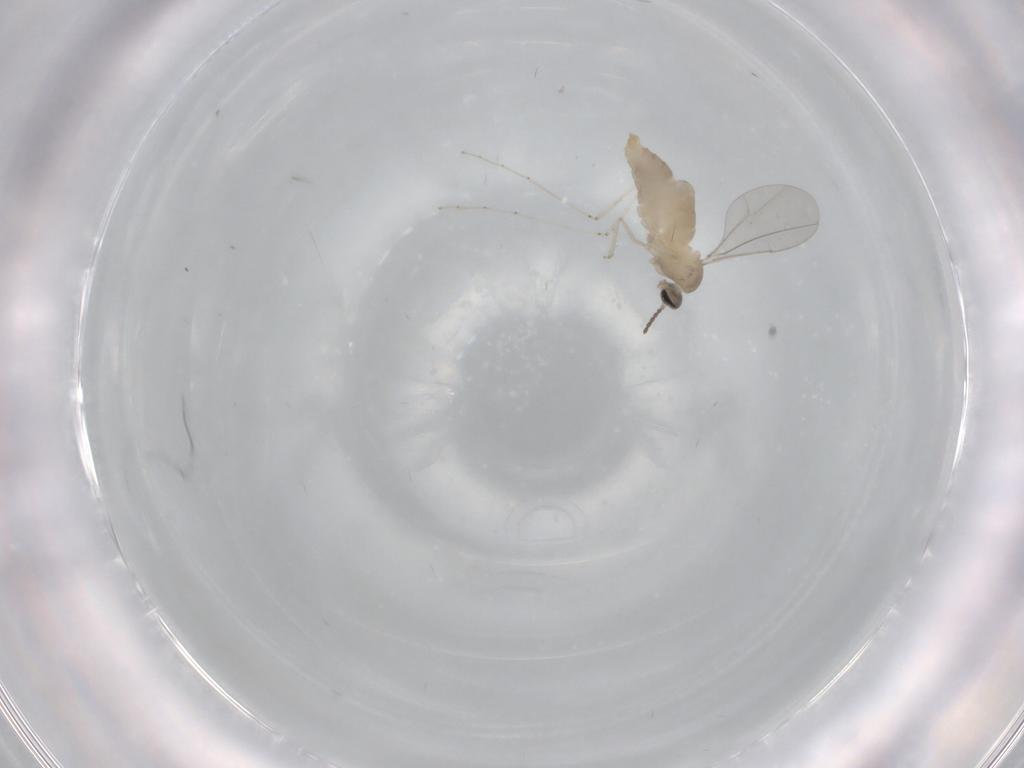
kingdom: Animalia
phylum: Arthropoda
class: Insecta
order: Diptera
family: Cecidomyiidae
